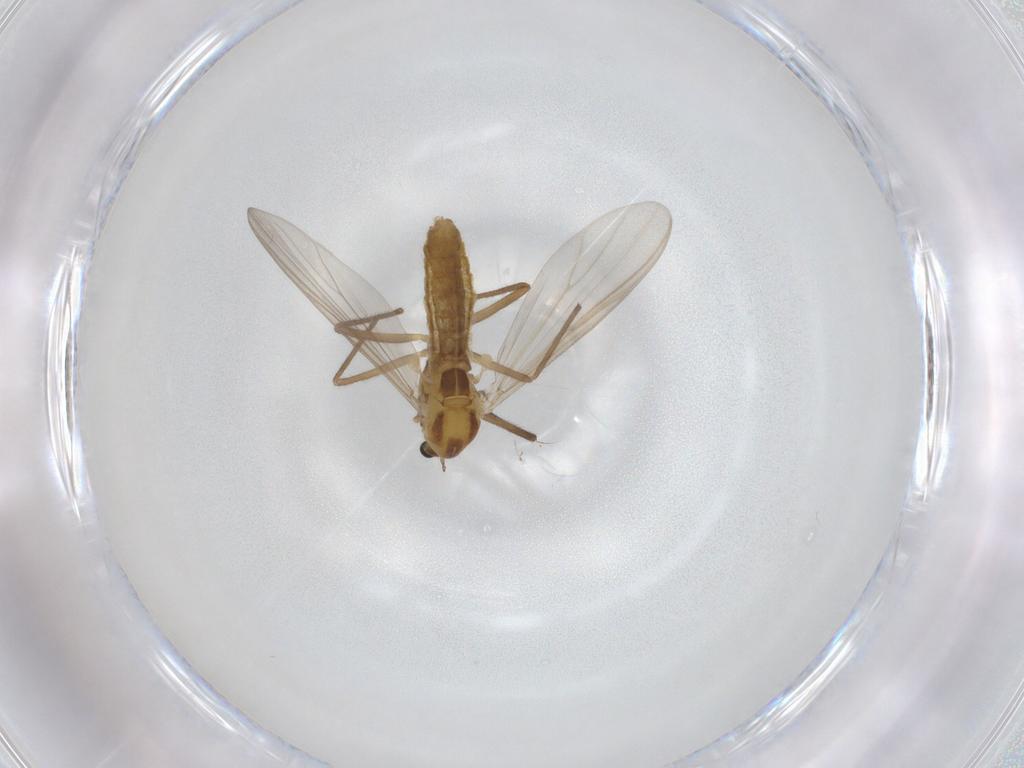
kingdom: Animalia
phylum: Arthropoda
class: Insecta
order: Diptera
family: Chironomidae
